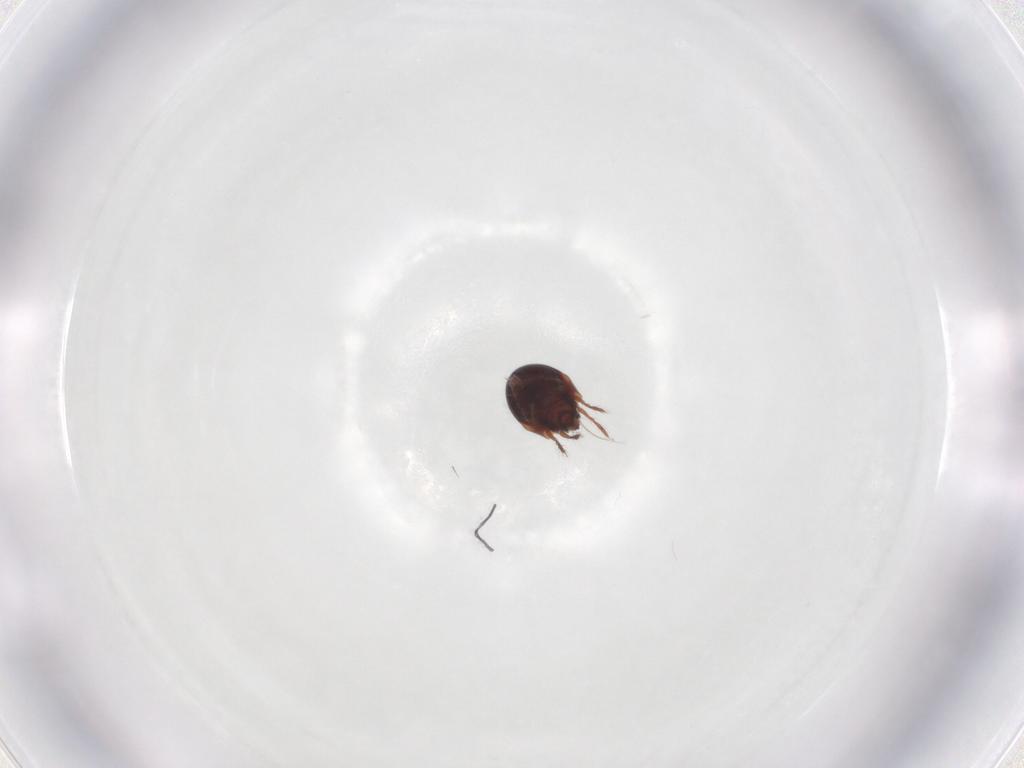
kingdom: Animalia
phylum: Arthropoda
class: Arachnida
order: Sarcoptiformes
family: Humerobatidae
